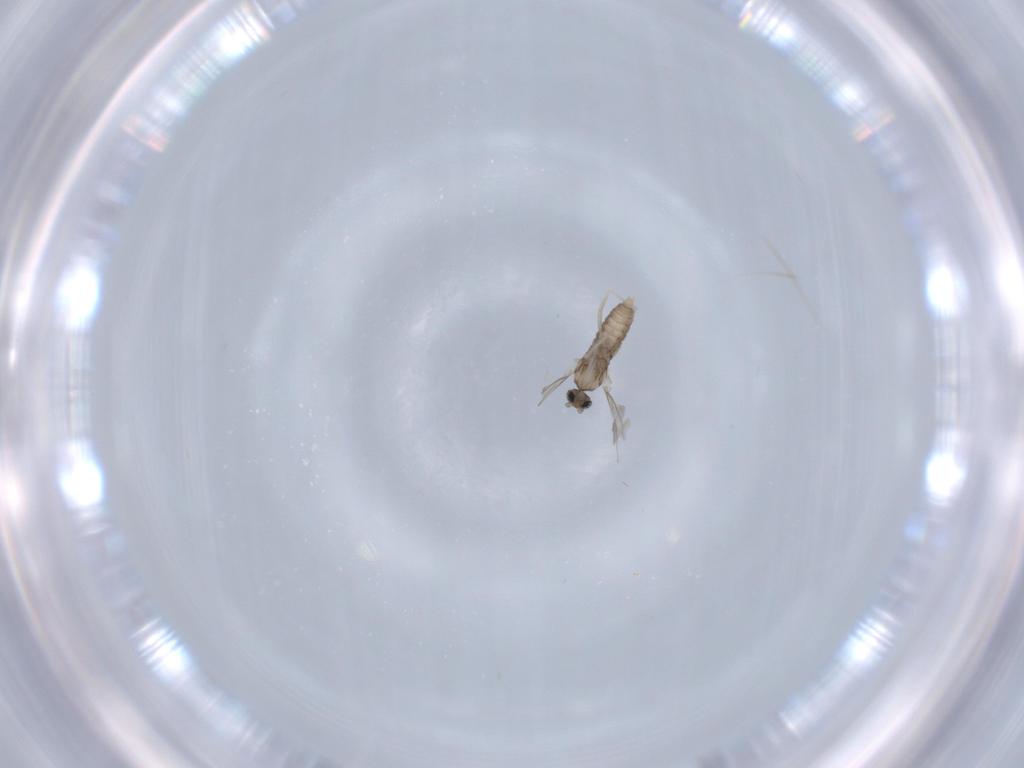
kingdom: Animalia
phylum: Arthropoda
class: Insecta
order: Diptera
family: Cecidomyiidae
